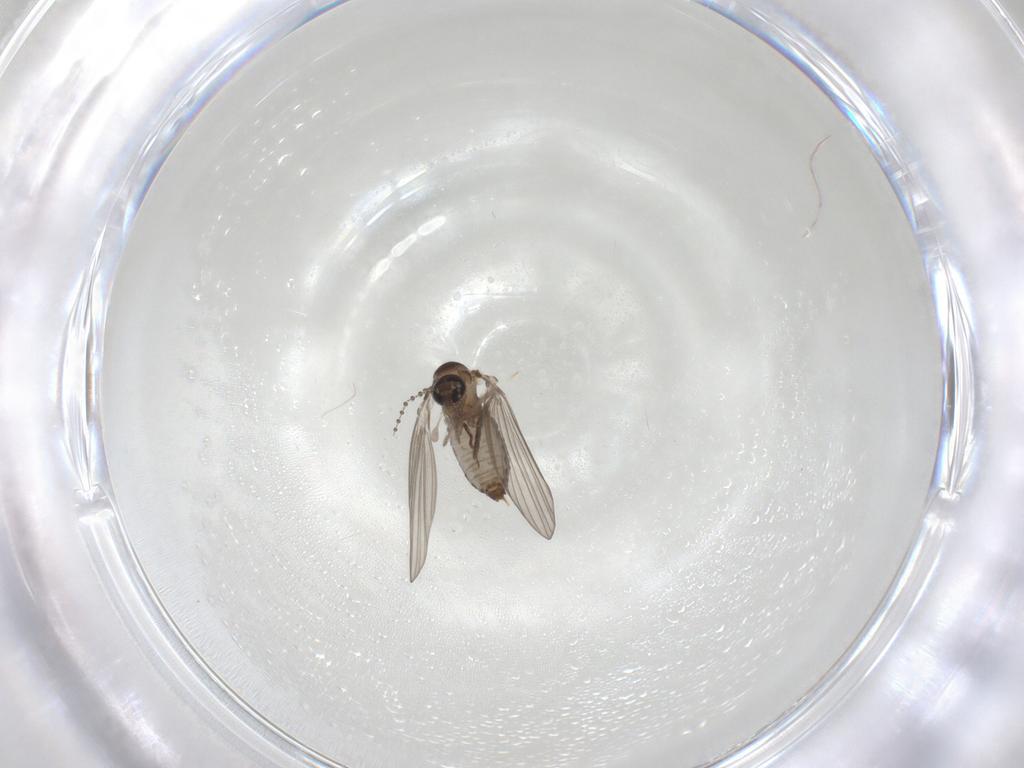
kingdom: Animalia
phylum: Arthropoda
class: Insecta
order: Diptera
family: Psychodidae
